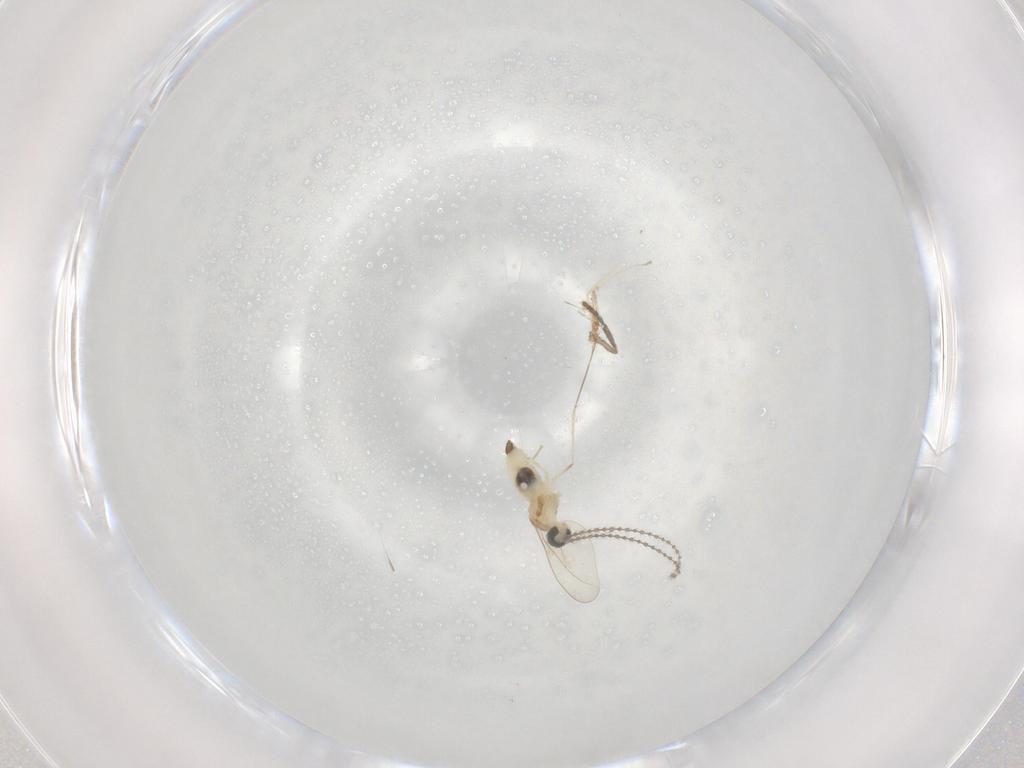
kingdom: Animalia
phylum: Arthropoda
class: Insecta
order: Diptera
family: Cecidomyiidae
